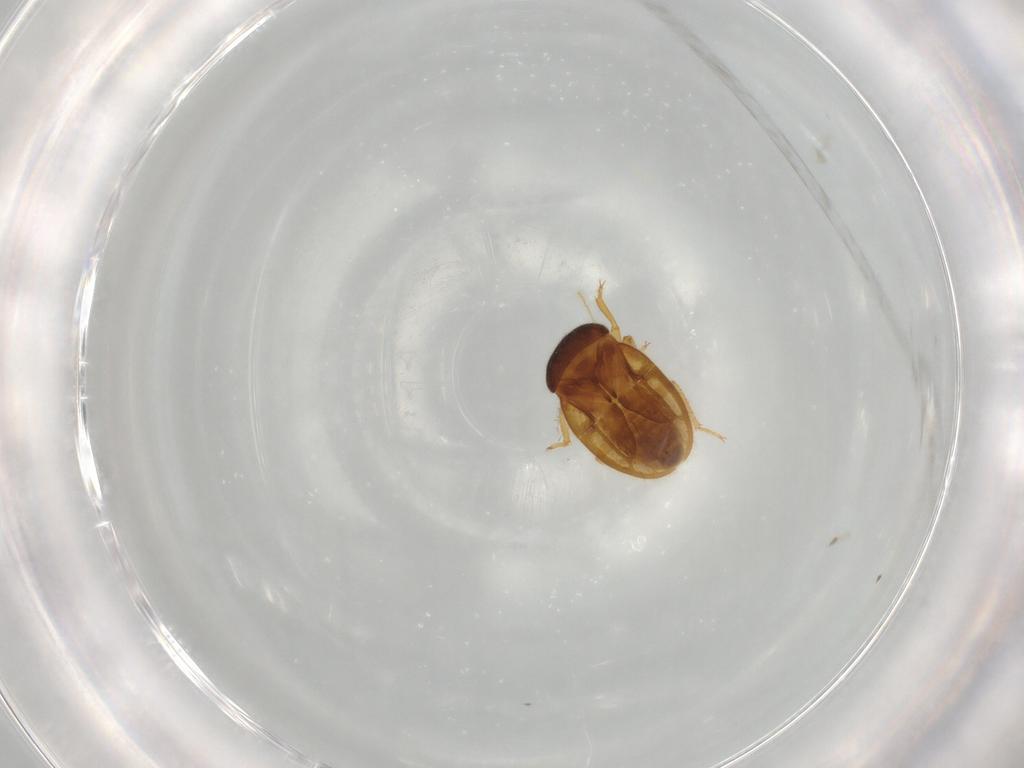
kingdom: Animalia
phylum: Arthropoda
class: Insecta
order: Hemiptera
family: Schizopteridae
